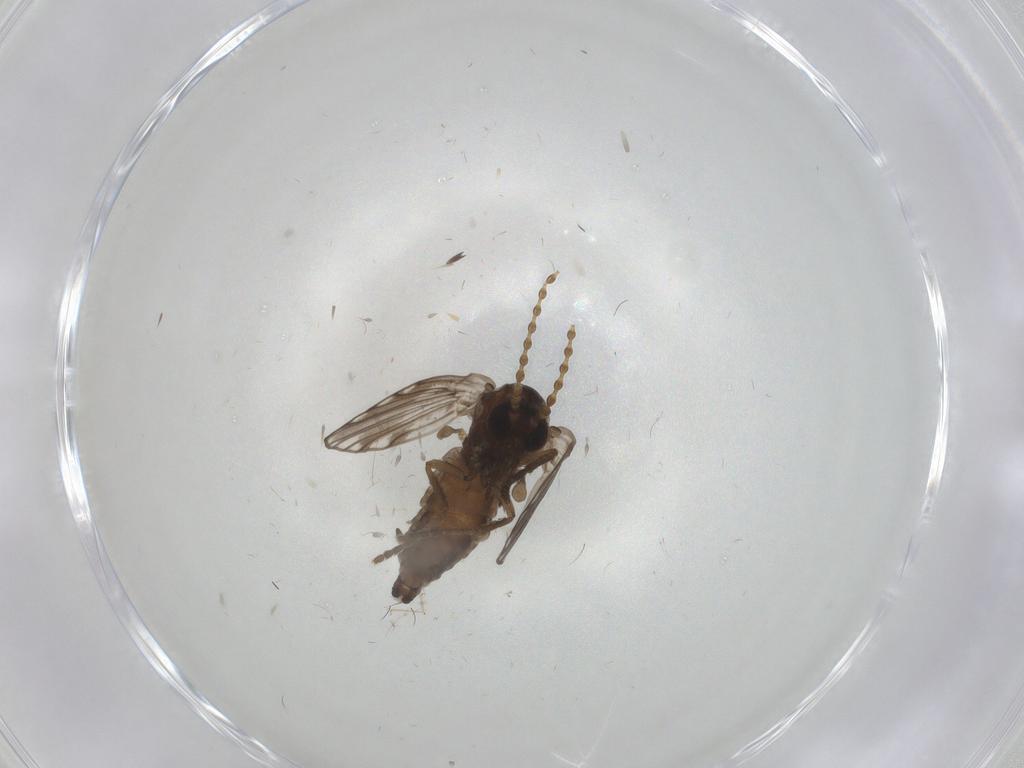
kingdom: Animalia
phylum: Arthropoda
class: Insecta
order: Diptera
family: Psychodidae
